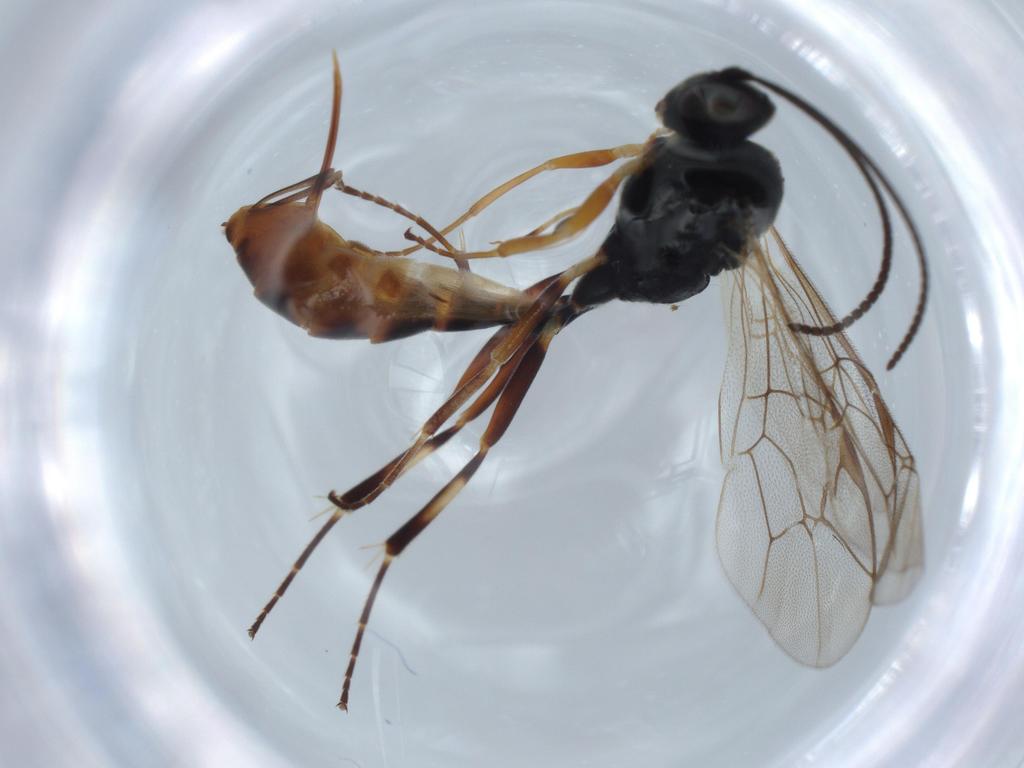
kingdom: Animalia
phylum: Arthropoda
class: Insecta
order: Hymenoptera
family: Ichneumonidae
